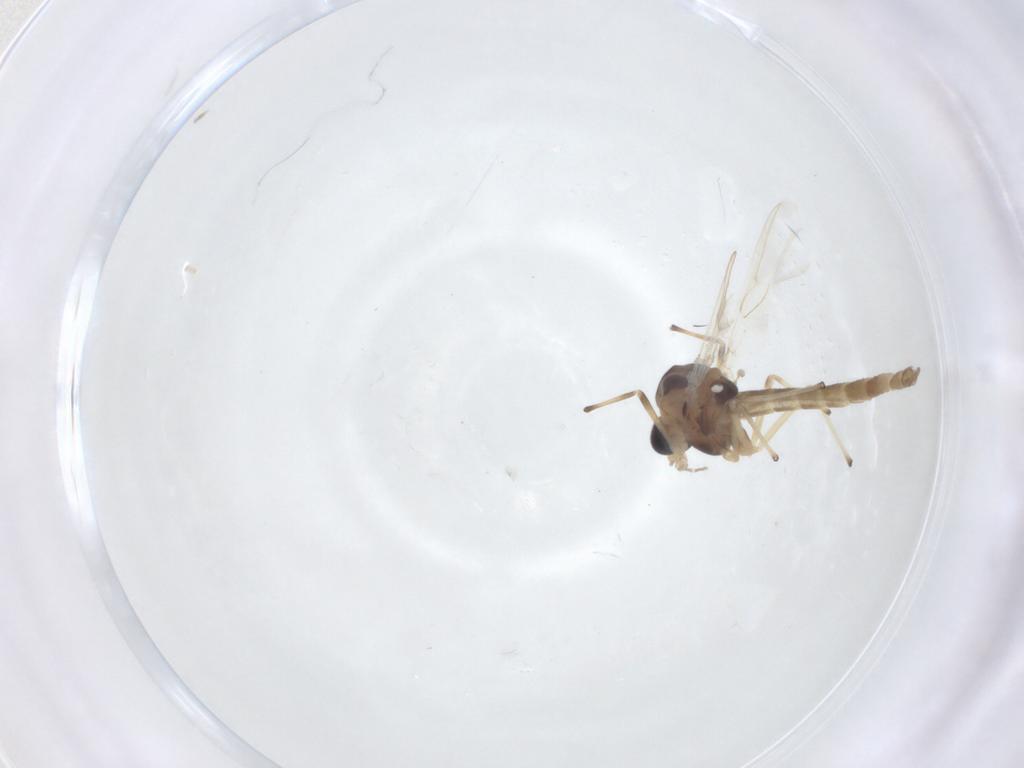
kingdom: Animalia
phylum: Arthropoda
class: Insecta
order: Diptera
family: Chironomidae
